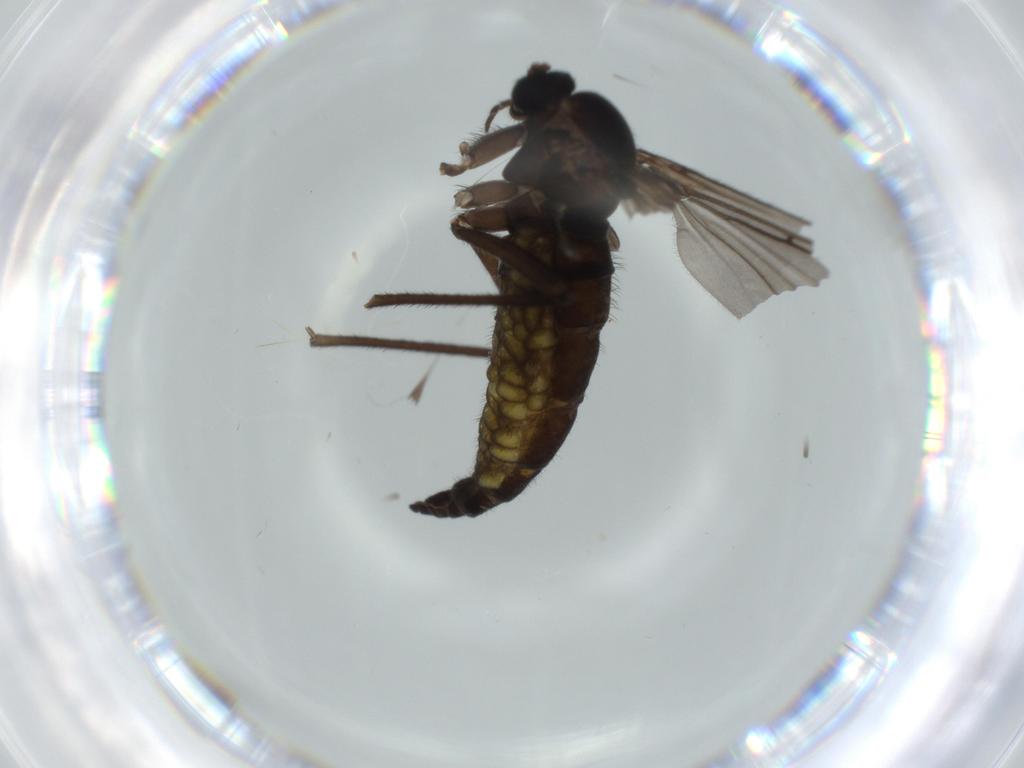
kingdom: Animalia
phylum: Arthropoda
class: Insecta
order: Diptera
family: Sciaridae
